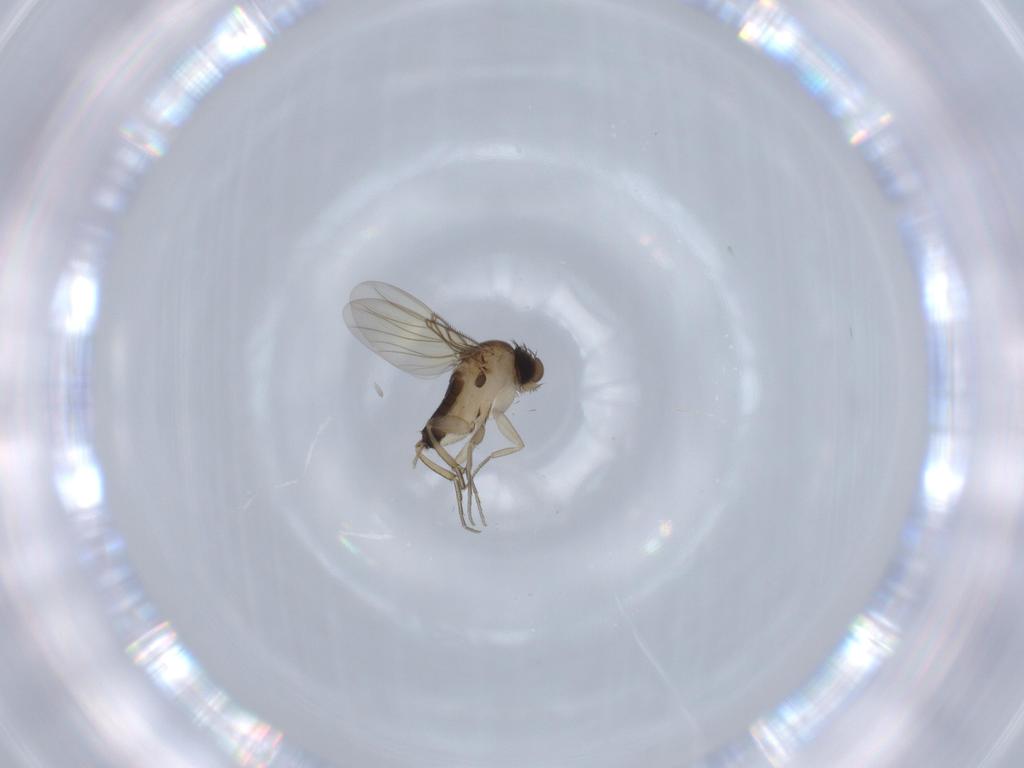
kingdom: Animalia
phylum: Arthropoda
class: Insecta
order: Diptera
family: Phoridae
